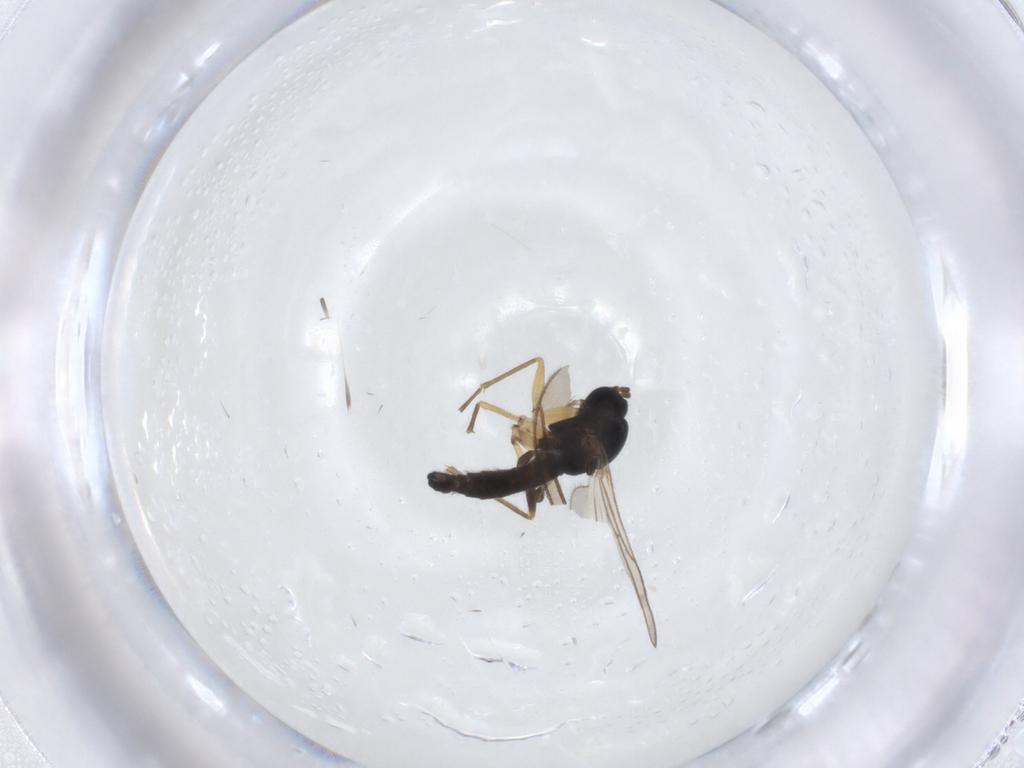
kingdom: Animalia
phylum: Arthropoda
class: Insecta
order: Diptera
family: Sciaridae
